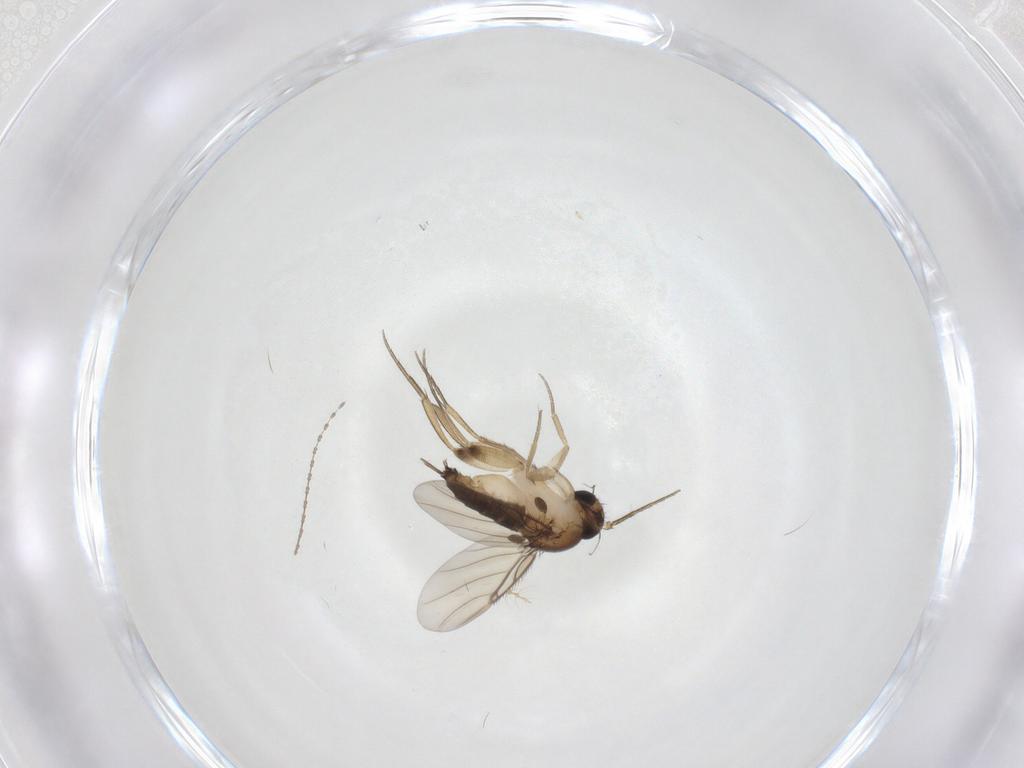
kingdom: Animalia
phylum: Arthropoda
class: Insecta
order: Diptera
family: Cecidomyiidae
